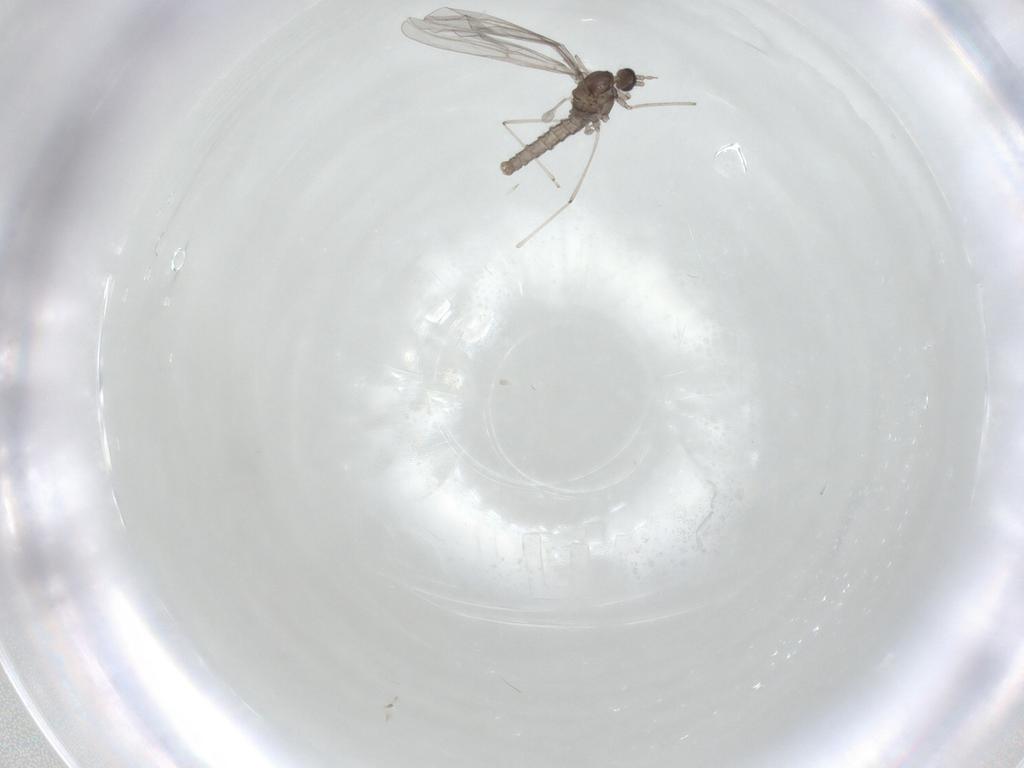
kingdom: Animalia
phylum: Arthropoda
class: Insecta
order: Diptera
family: Cecidomyiidae
